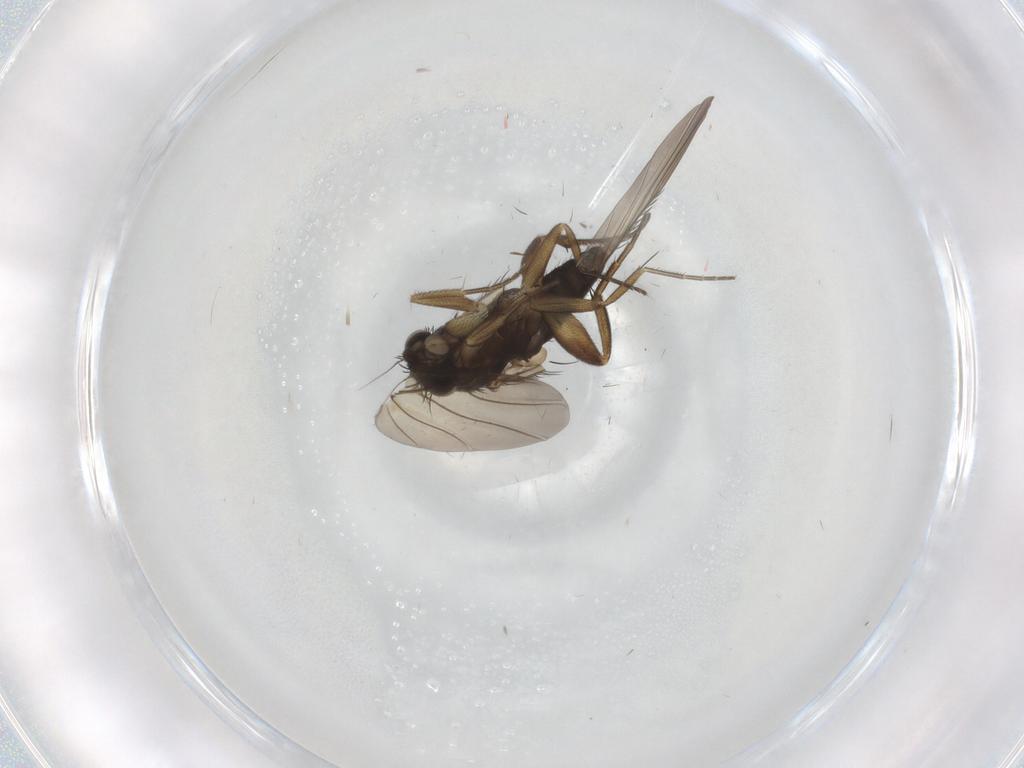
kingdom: Animalia
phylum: Arthropoda
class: Insecta
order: Diptera
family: Phoridae
